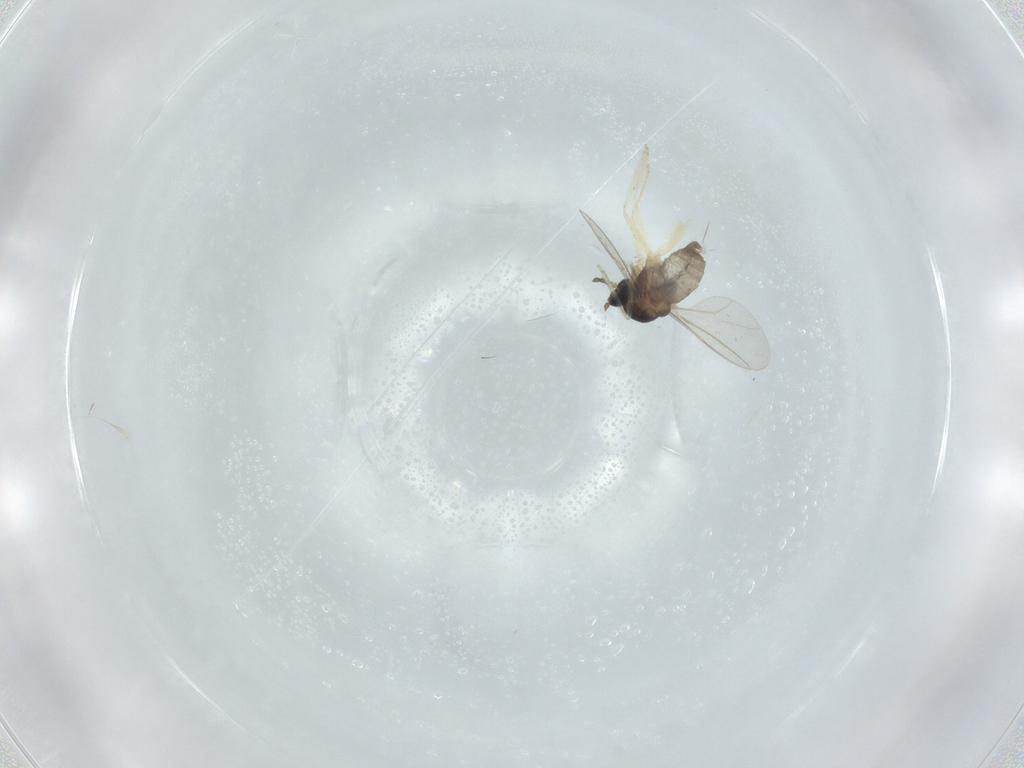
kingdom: Animalia
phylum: Arthropoda
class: Insecta
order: Diptera
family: Cecidomyiidae
